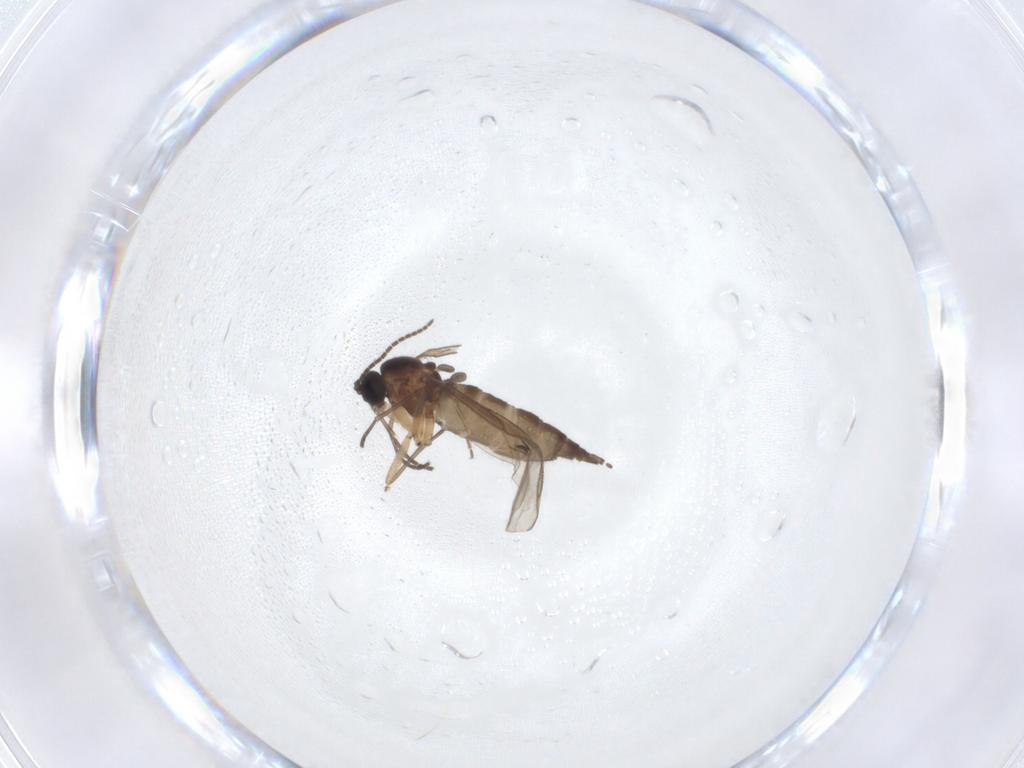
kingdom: Animalia
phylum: Arthropoda
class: Insecta
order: Diptera
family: Sciaridae
